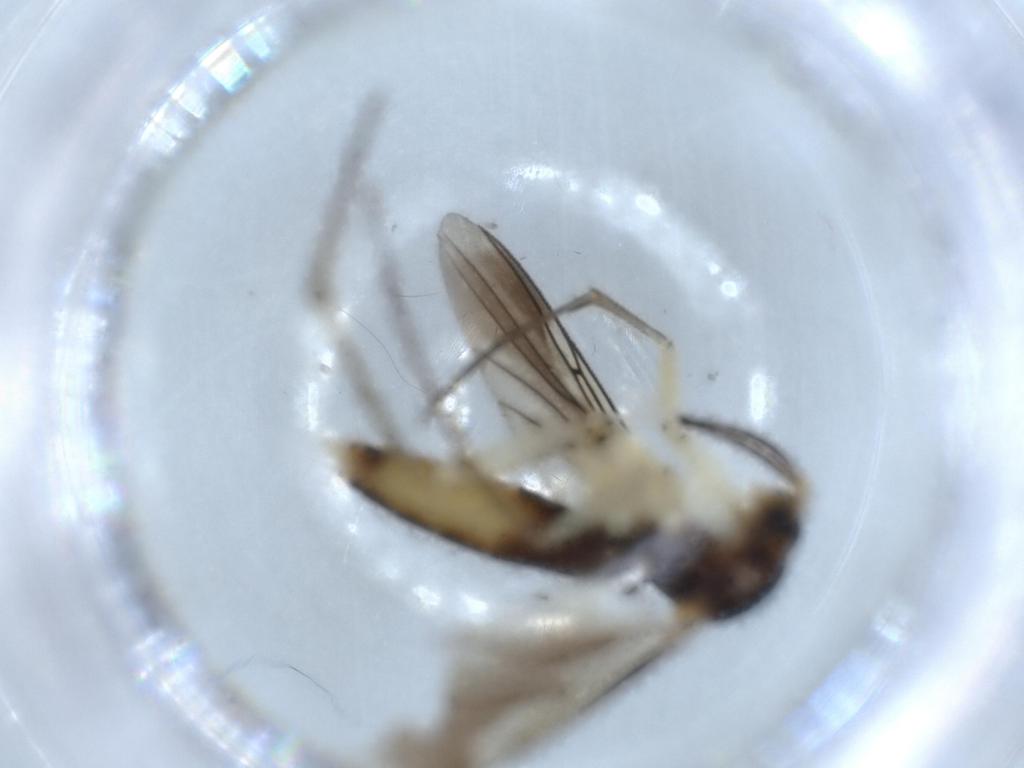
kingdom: Animalia
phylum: Arthropoda
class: Insecta
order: Diptera
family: Mycetophilidae
